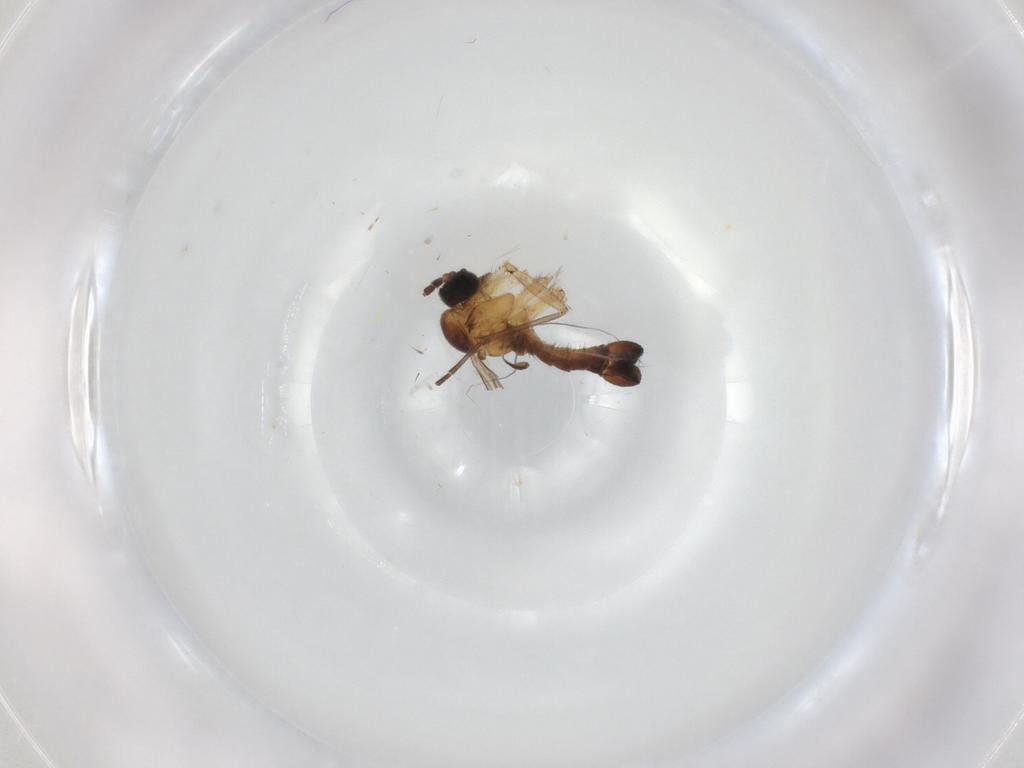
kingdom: Animalia
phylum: Arthropoda
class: Insecta
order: Diptera
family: Sciaridae
